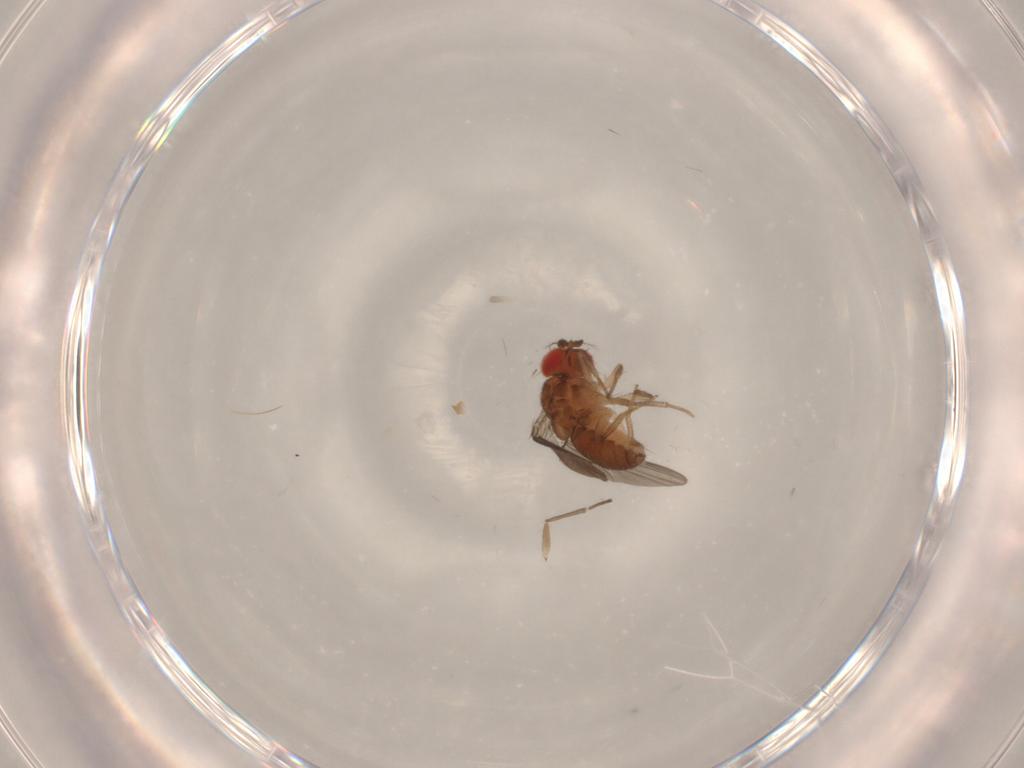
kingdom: Animalia
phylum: Arthropoda
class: Insecta
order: Diptera
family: Drosophilidae
